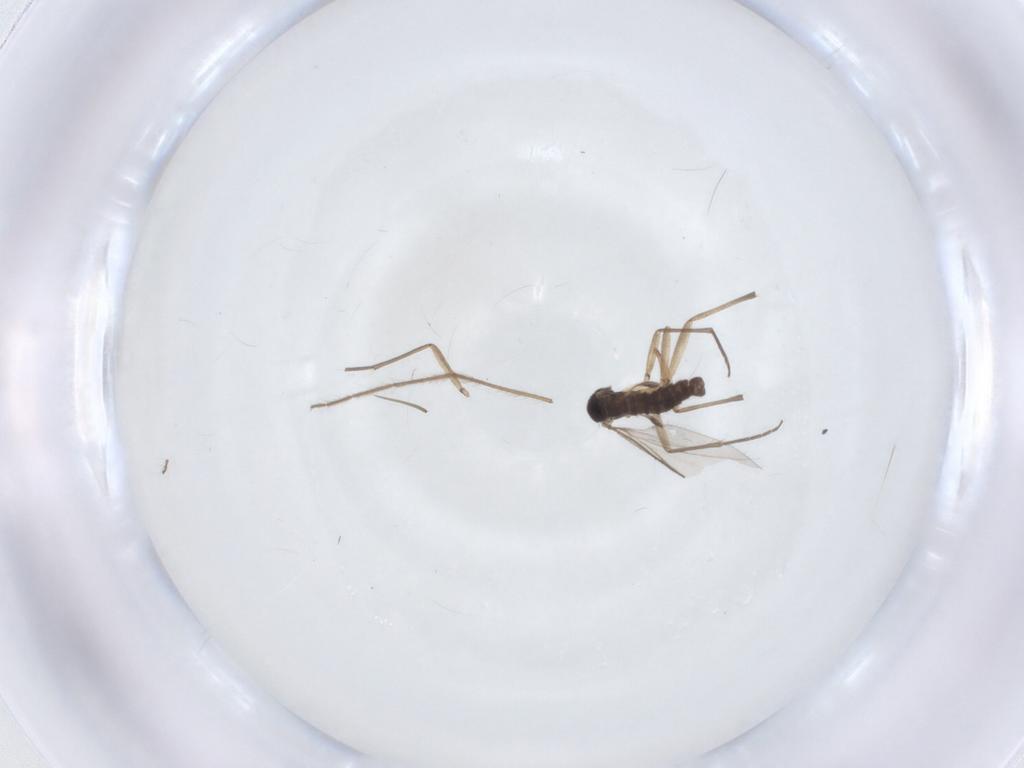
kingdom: Animalia
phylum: Arthropoda
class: Insecta
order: Diptera
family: Sciaridae
